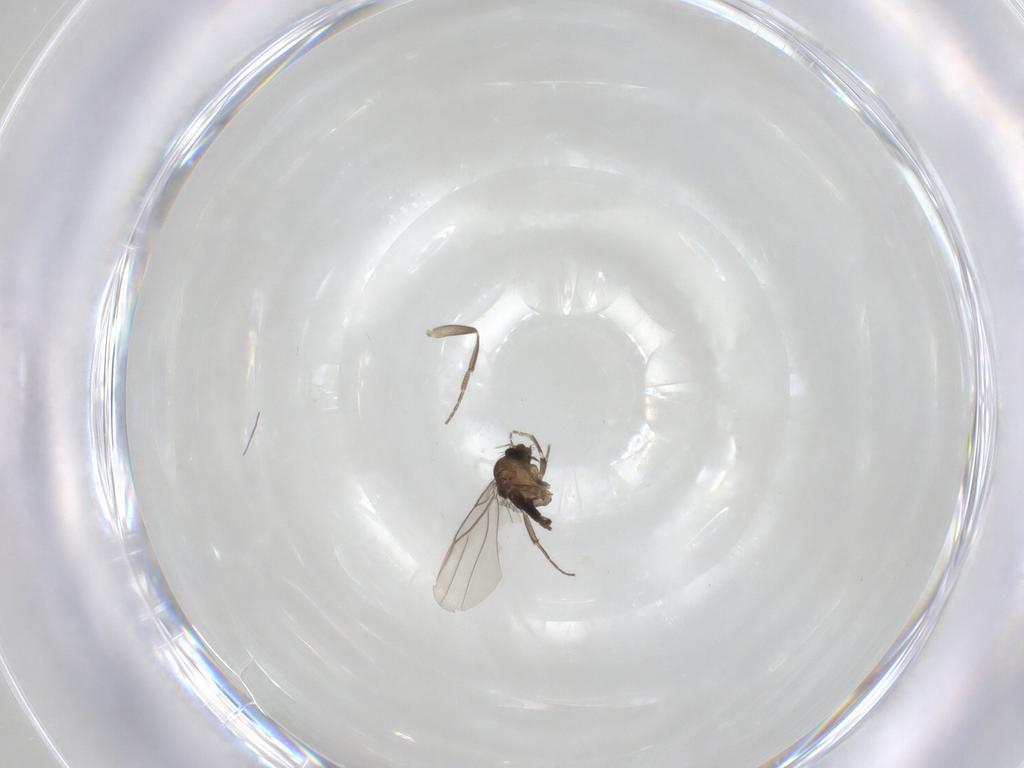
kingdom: Animalia
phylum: Arthropoda
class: Insecta
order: Diptera
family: Phoridae
